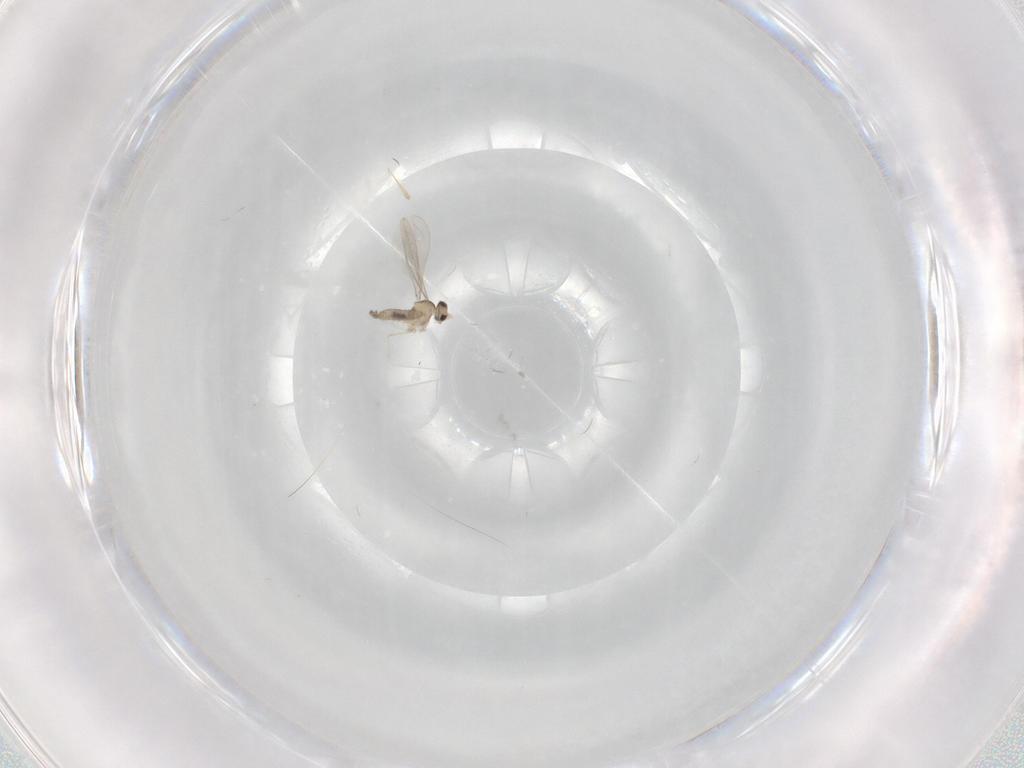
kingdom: Animalia
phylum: Arthropoda
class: Insecta
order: Diptera
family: Cecidomyiidae
